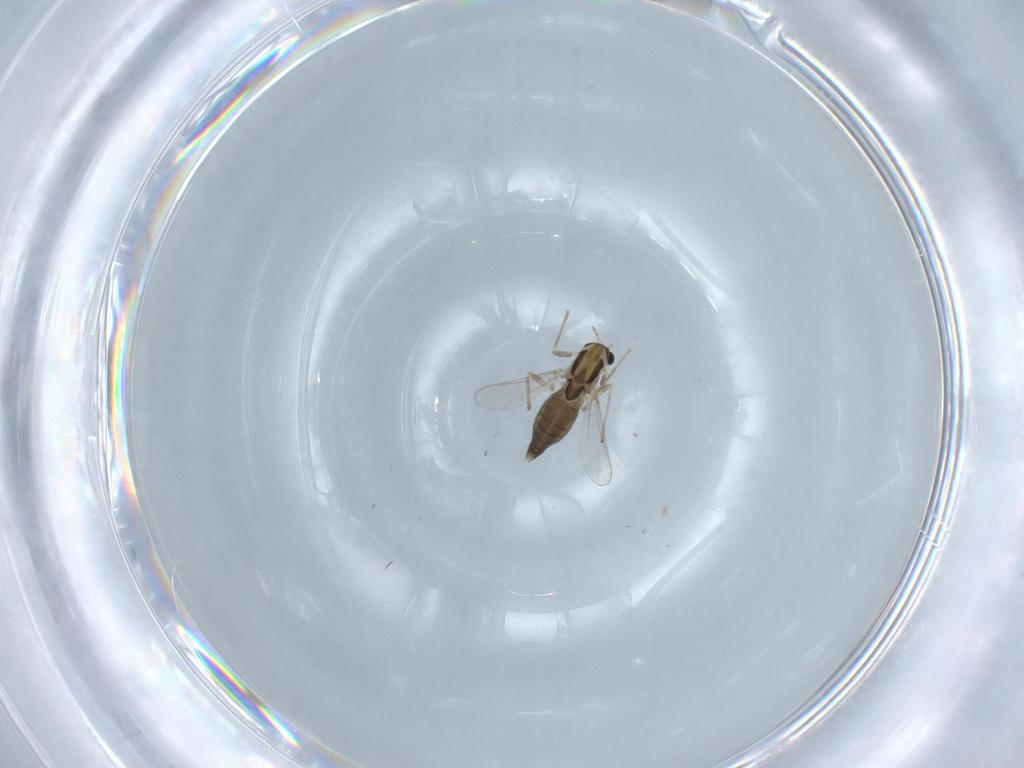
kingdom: Animalia
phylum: Arthropoda
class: Insecta
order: Diptera
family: Chironomidae
